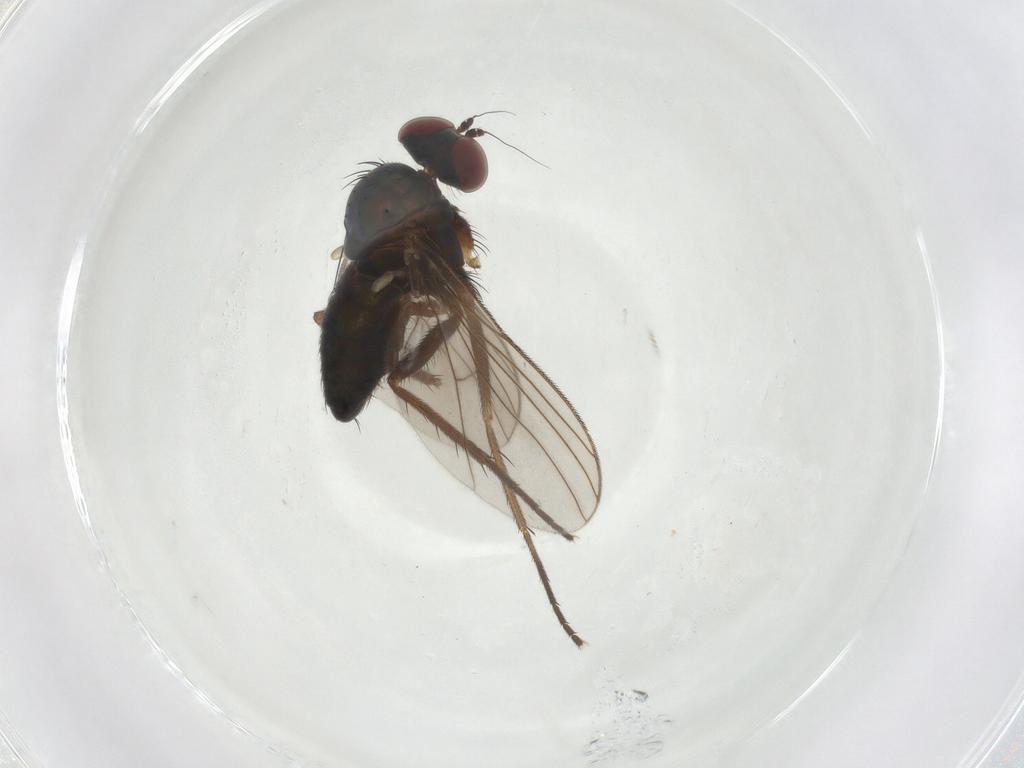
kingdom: Animalia
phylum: Arthropoda
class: Insecta
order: Diptera
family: Dolichopodidae
